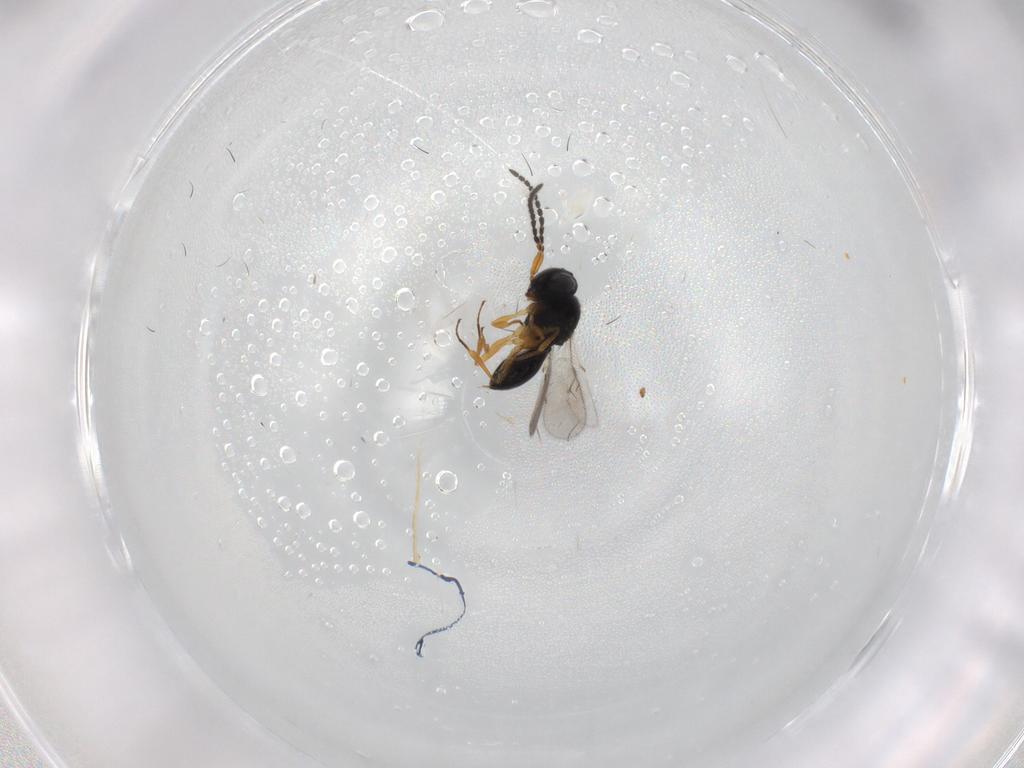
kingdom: Animalia
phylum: Arthropoda
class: Insecta
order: Hymenoptera
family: Scelionidae
